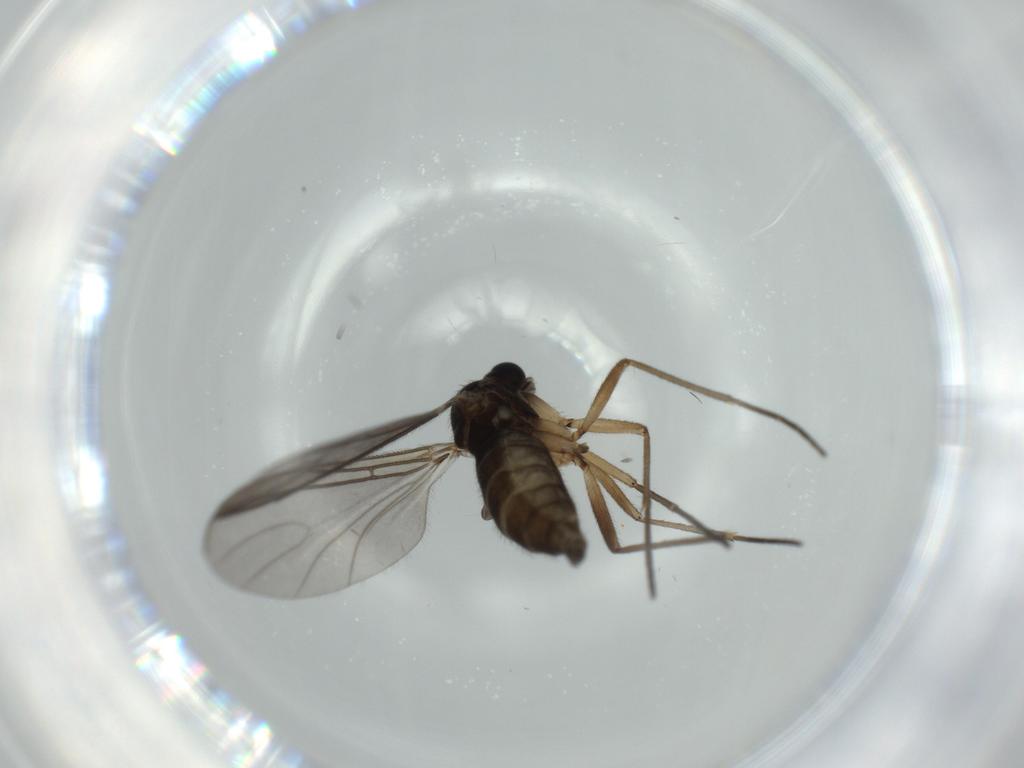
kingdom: Animalia
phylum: Arthropoda
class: Insecta
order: Diptera
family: Sciaridae
